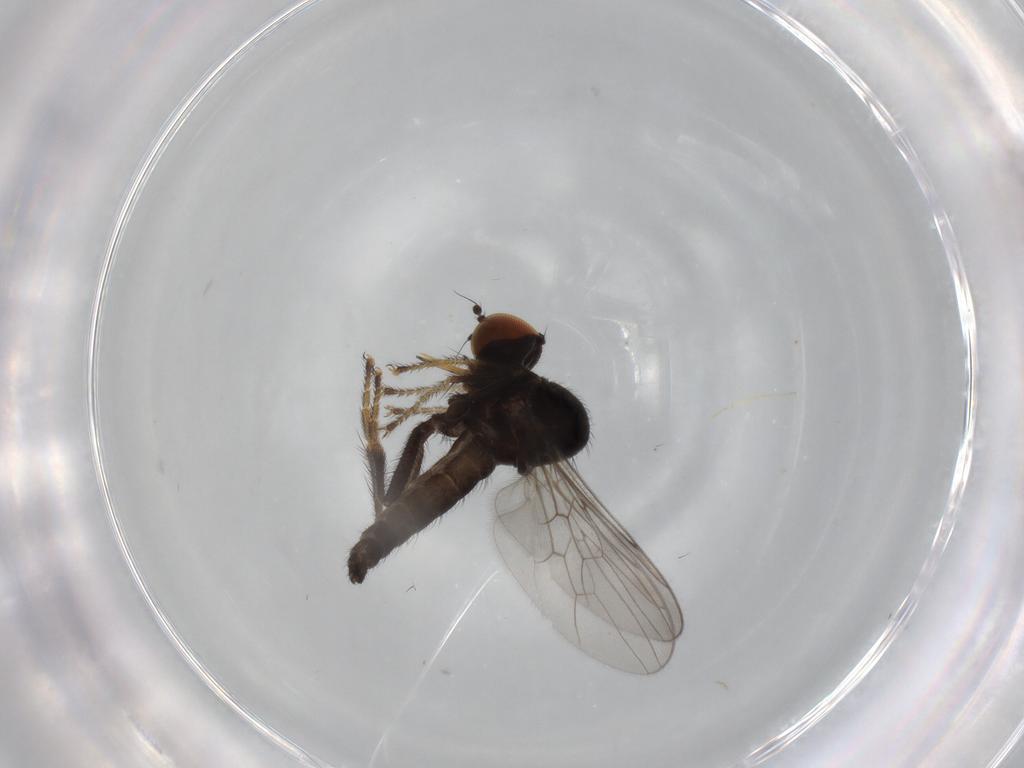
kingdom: Animalia
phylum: Arthropoda
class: Insecta
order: Diptera
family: Hybotidae
